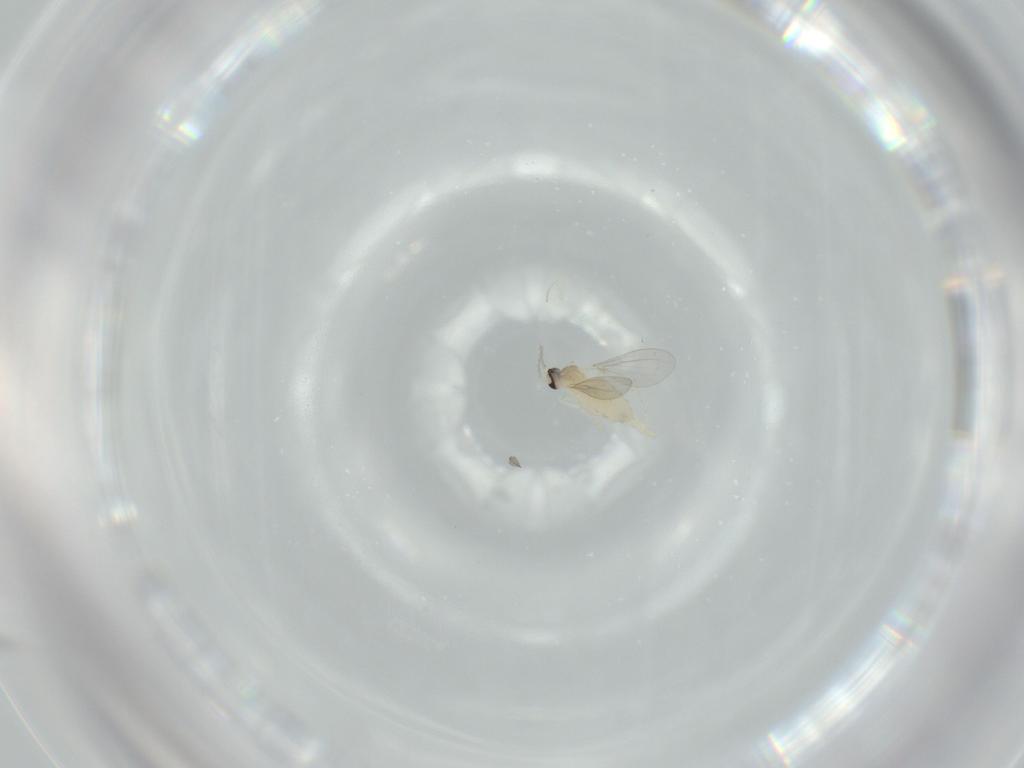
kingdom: Animalia
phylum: Arthropoda
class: Insecta
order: Diptera
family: Cecidomyiidae
